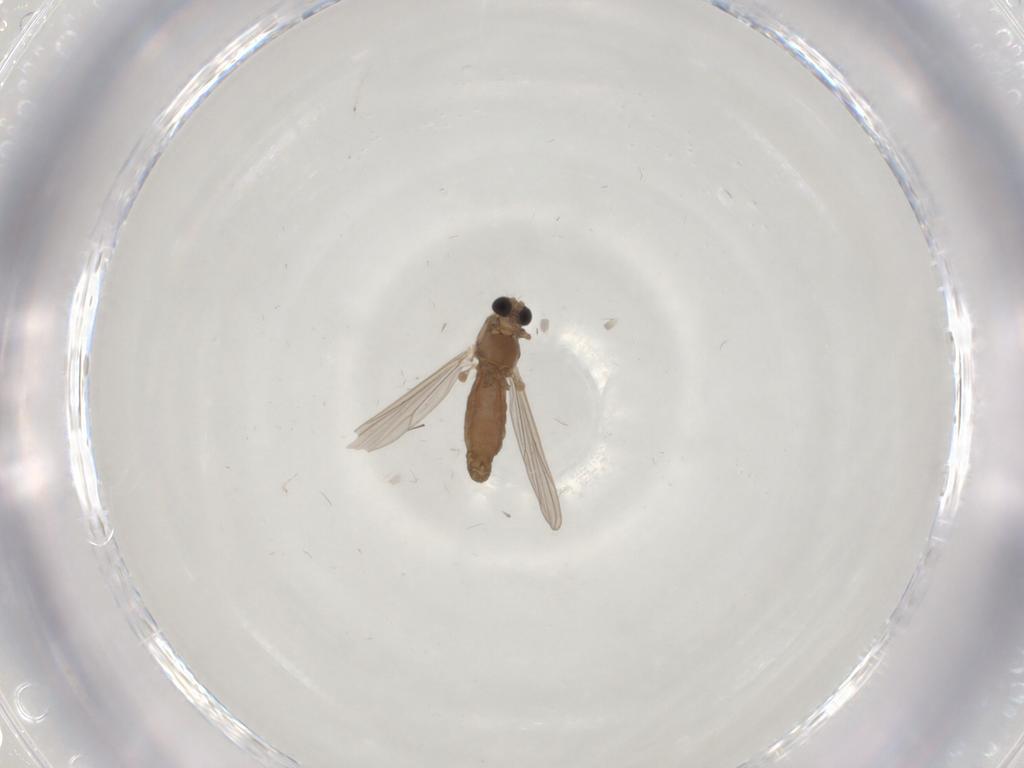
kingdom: Animalia
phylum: Arthropoda
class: Insecta
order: Diptera
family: Chironomidae
